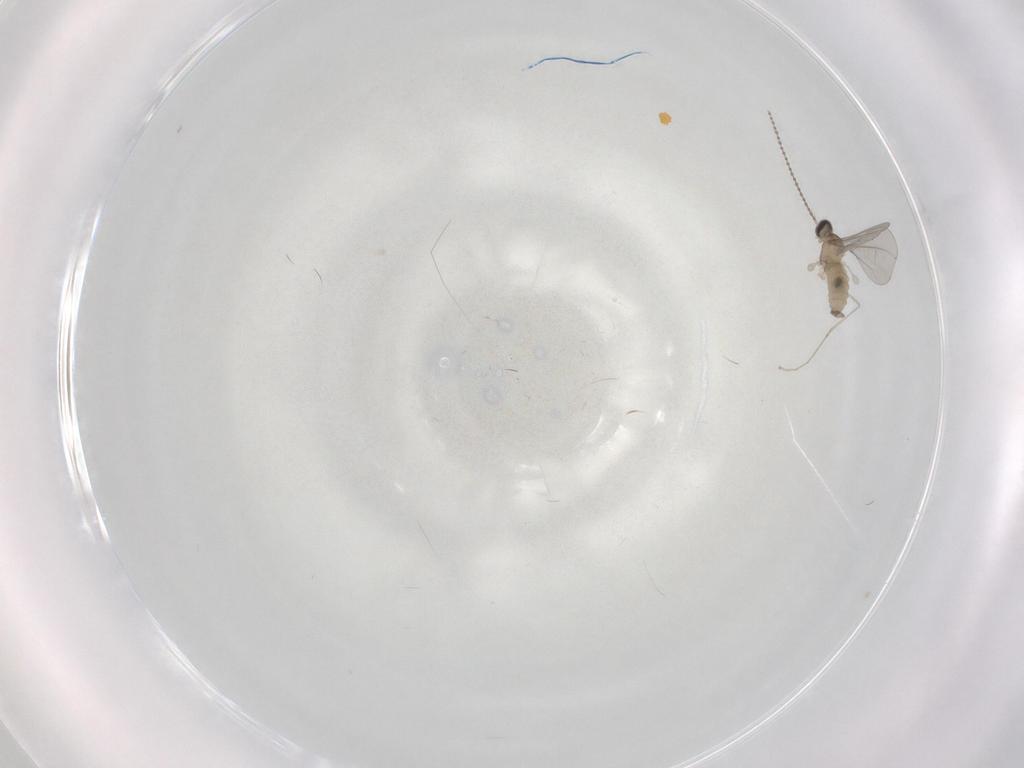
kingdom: Animalia
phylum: Arthropoda
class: Insecta
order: Diptera
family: Cecidomyiidae
